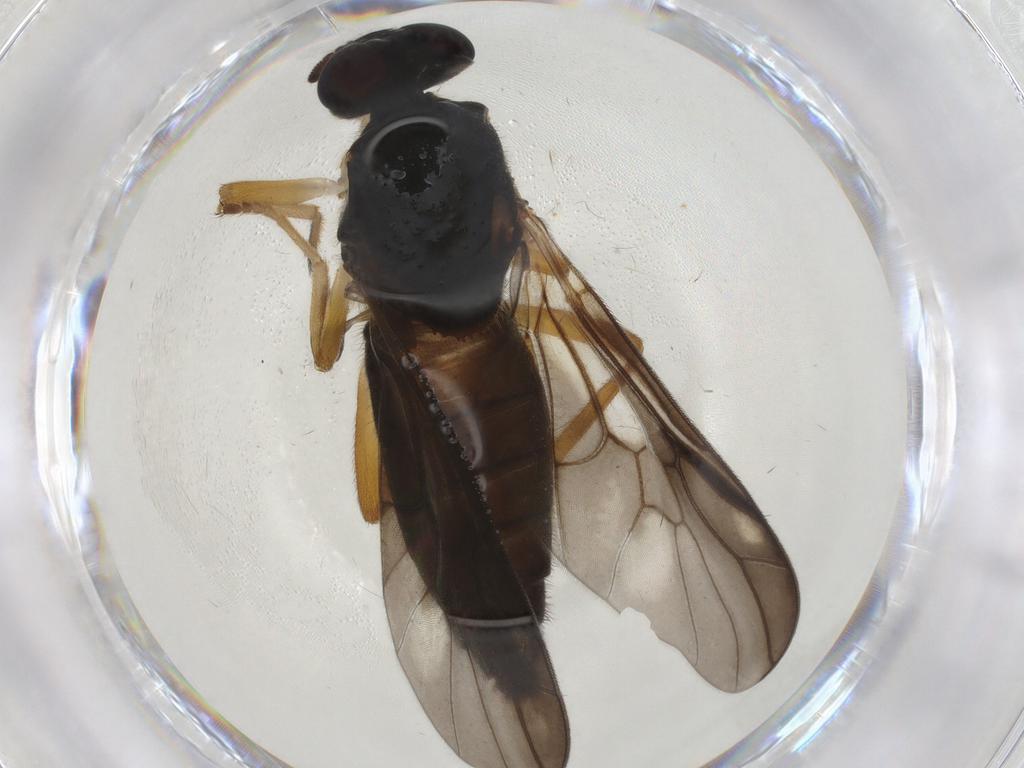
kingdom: Animalia
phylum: Arthropoda
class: Insecta
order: Diptera
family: Stratiomyidae
